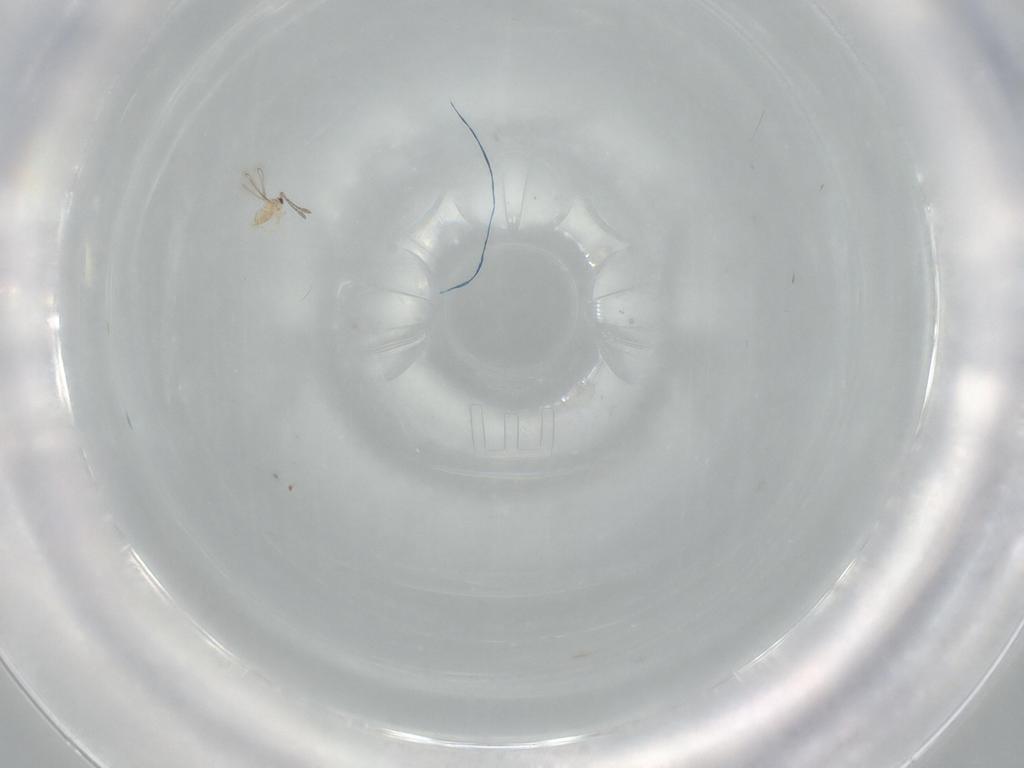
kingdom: Animalia
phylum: Arthropoda
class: Insecta
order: Hymenoptera
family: Mymaridae
